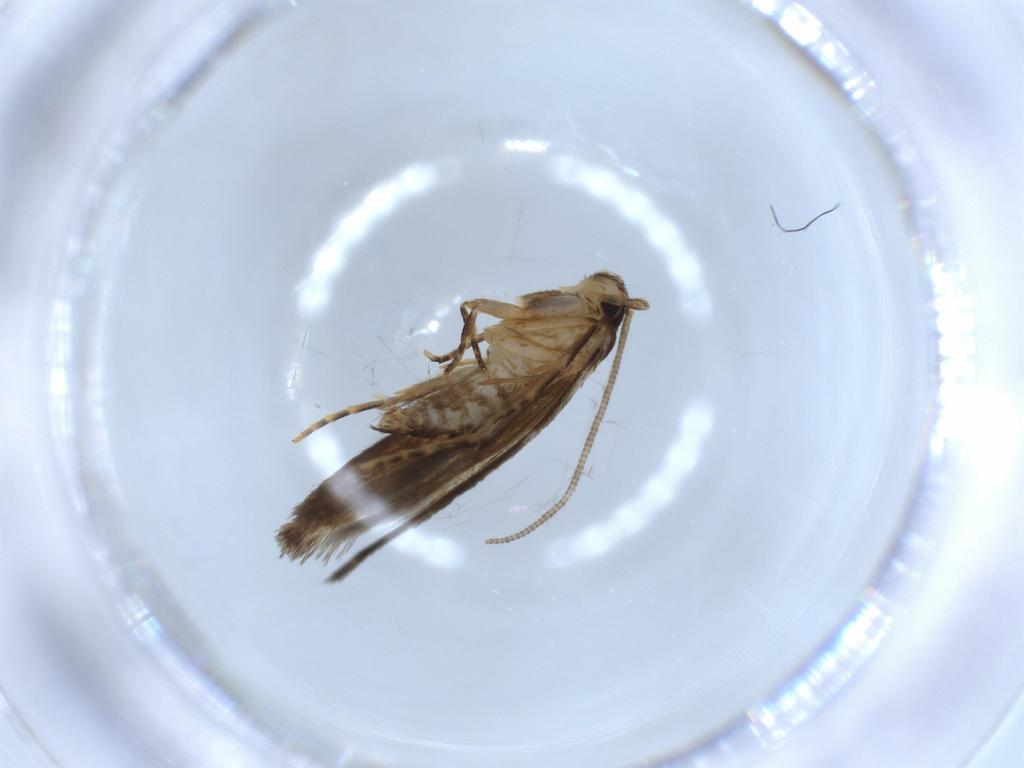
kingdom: Animalia
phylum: Arthropoda
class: Insecta
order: Lepidoptera
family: Tineidae
